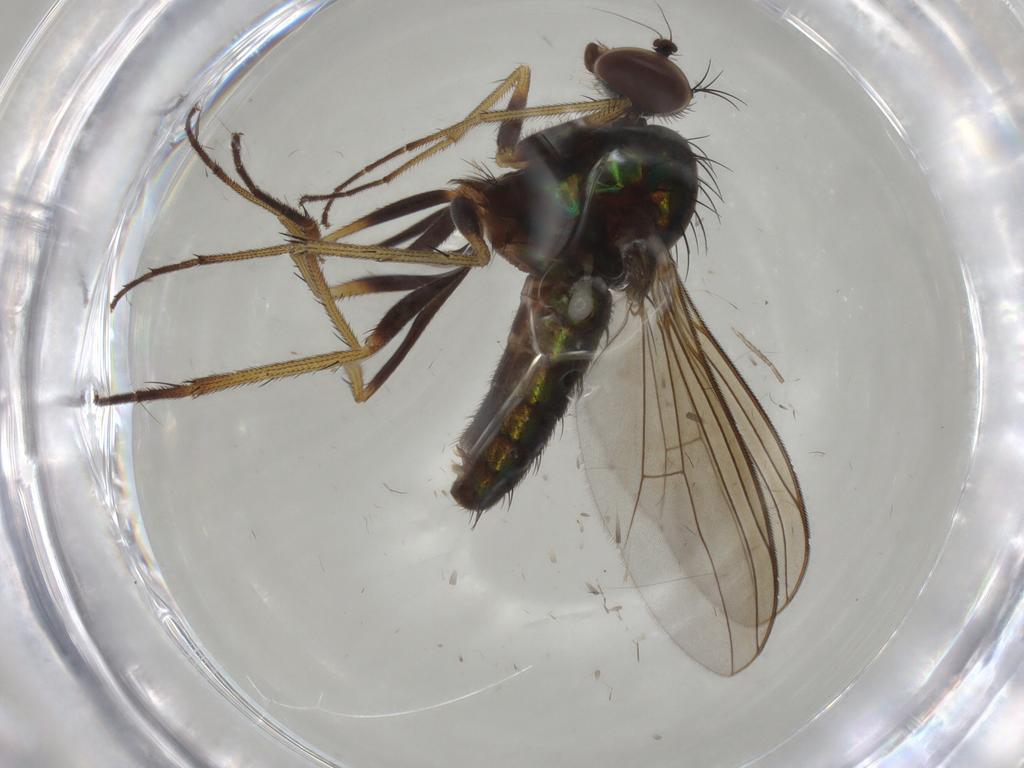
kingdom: Animalia
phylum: Arthropoda
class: Insecta
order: Diptera
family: Dolichopodidae
